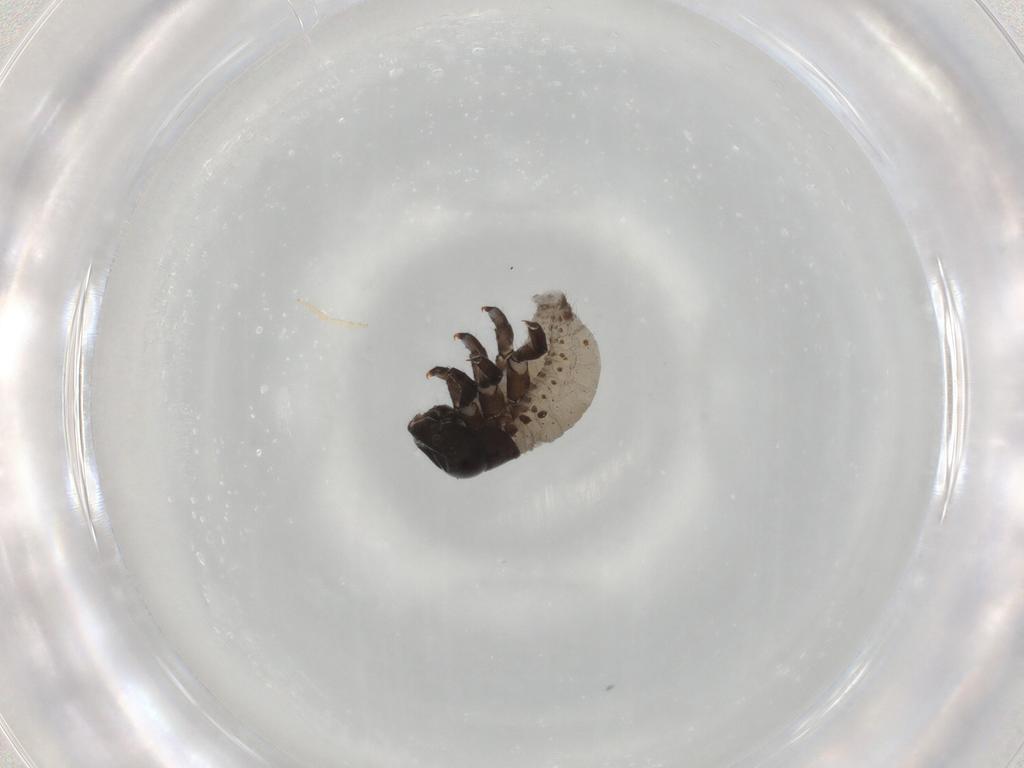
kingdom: Animalia
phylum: Arthropoda
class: Insecta
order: Coleoptera
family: Chrysomelidae
